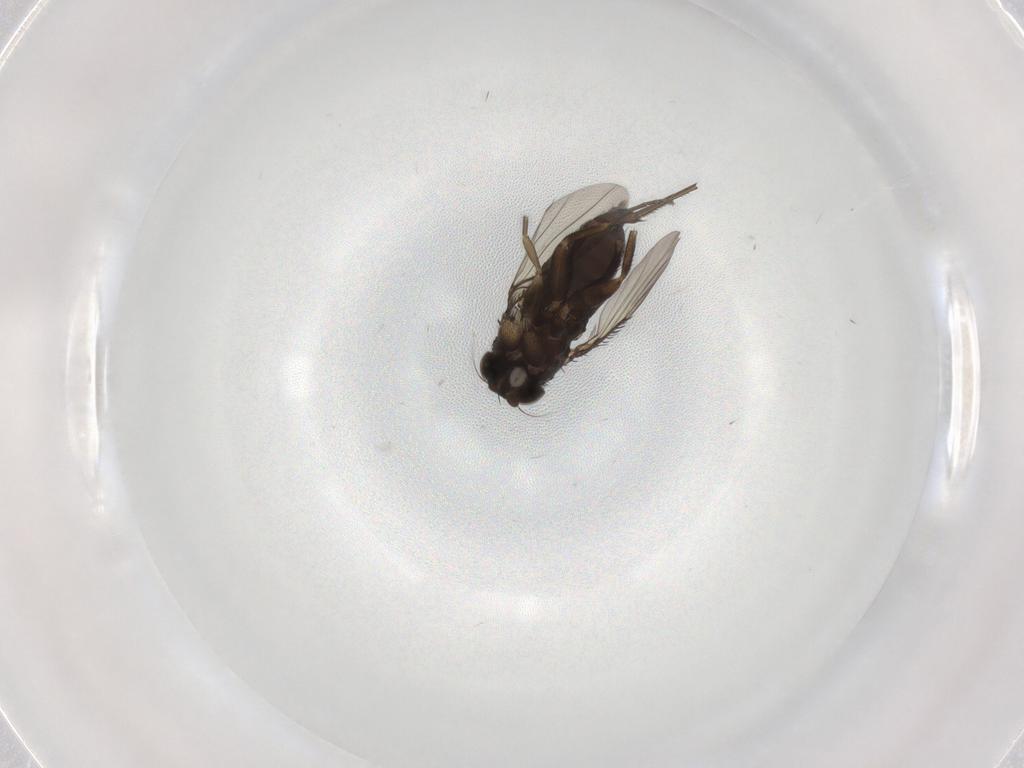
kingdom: Animalia
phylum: Arthropoda
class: Insecta
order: Diptera
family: Phoridae
